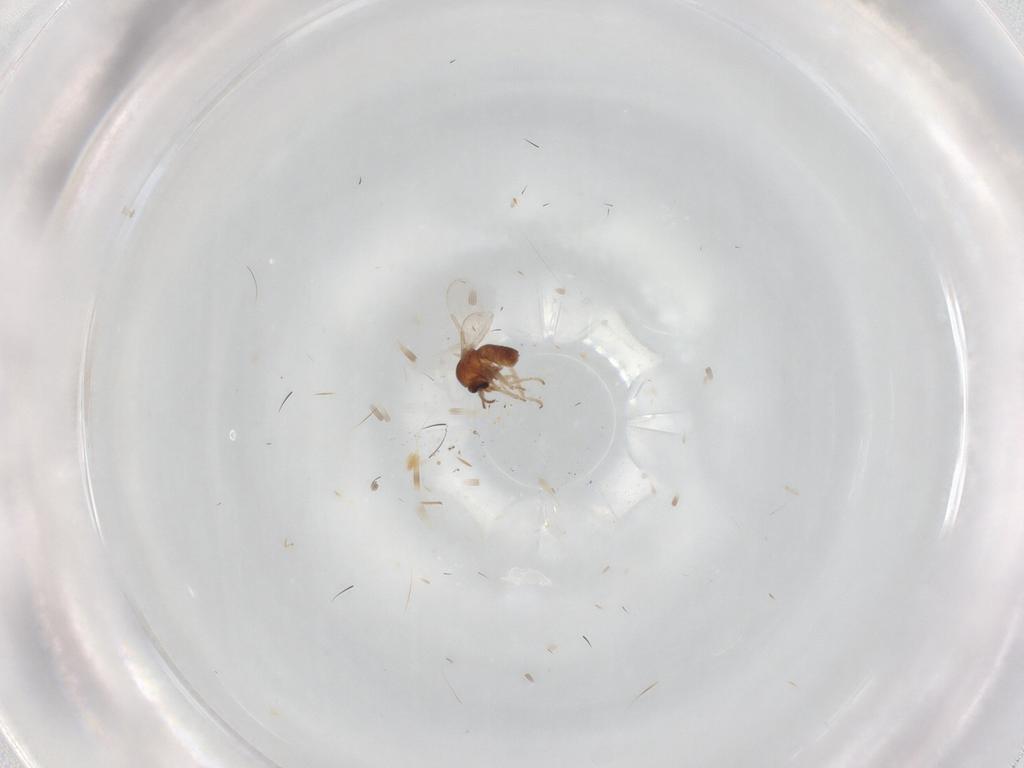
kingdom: Animalia
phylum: Arthropoda
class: Insecta
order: Diptera
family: Ceratopogonidae
